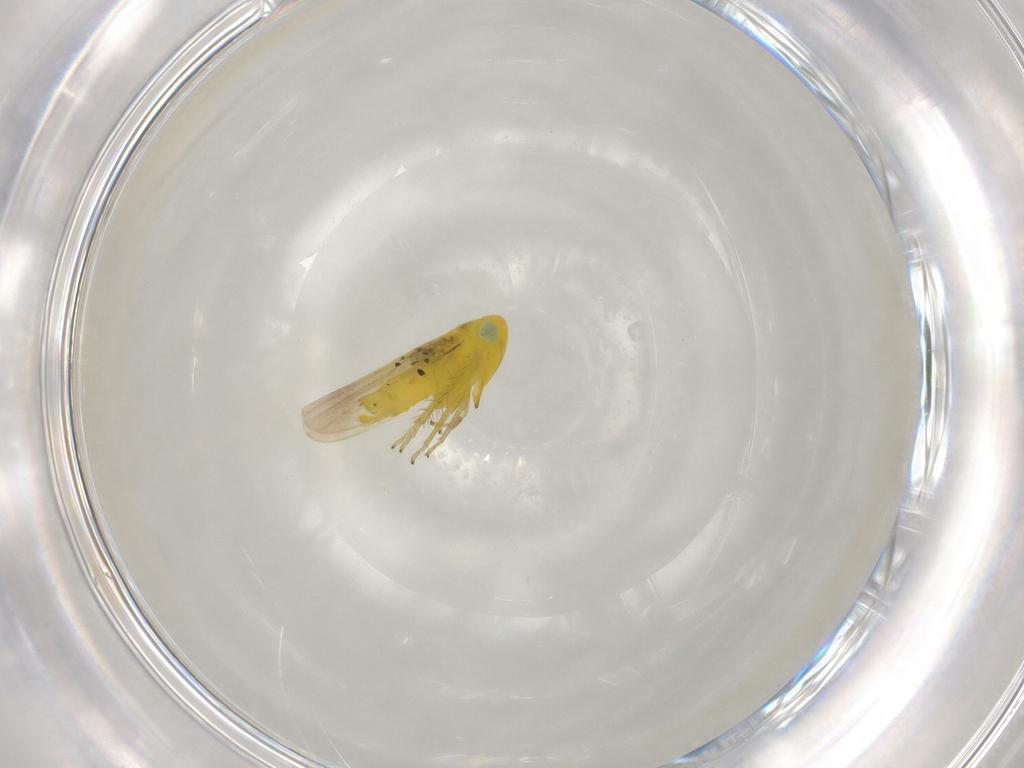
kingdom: Animalia
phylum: Arthropoda
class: Insecta
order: Hemiptera
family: Cicadellidae
